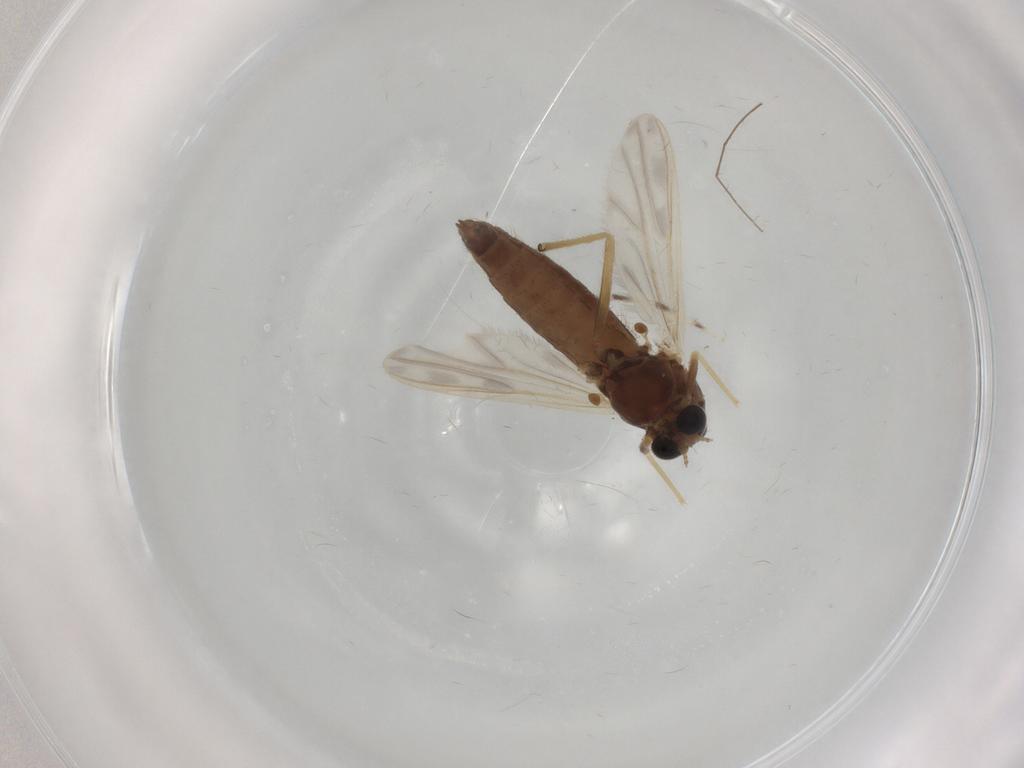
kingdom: Animalia
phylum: Arthropoda
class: Insecta
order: Diptera
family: Chironomidae
